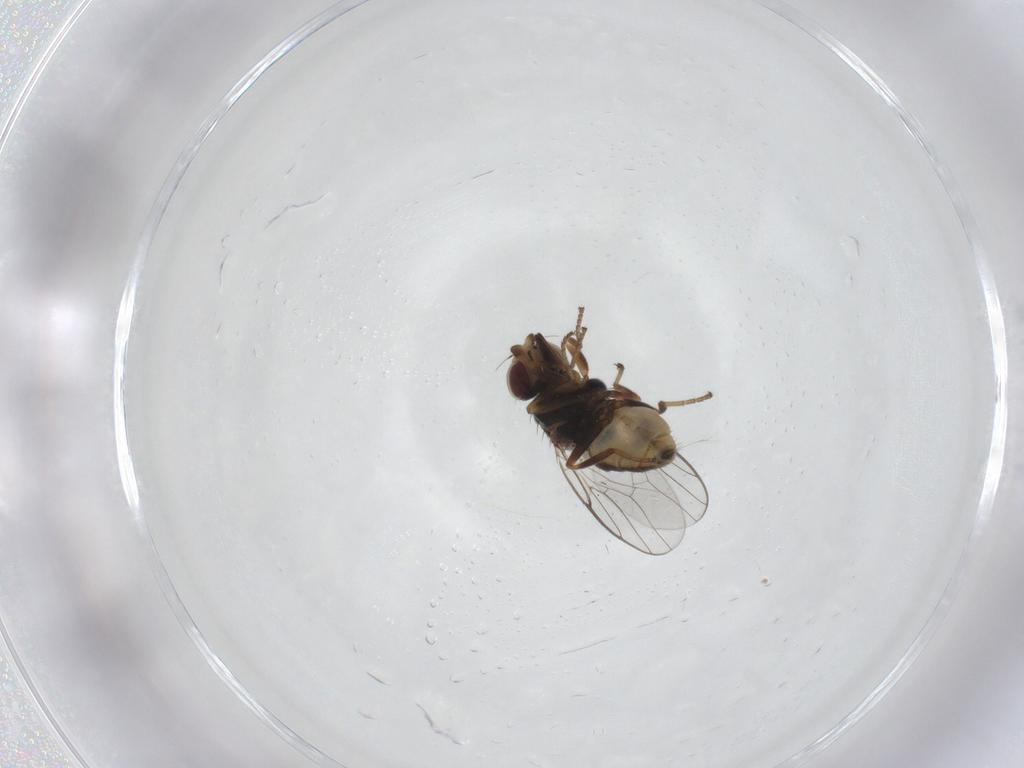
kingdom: Animalia
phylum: Arthropoda
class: Insecta
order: Diptera
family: Chloropidae
